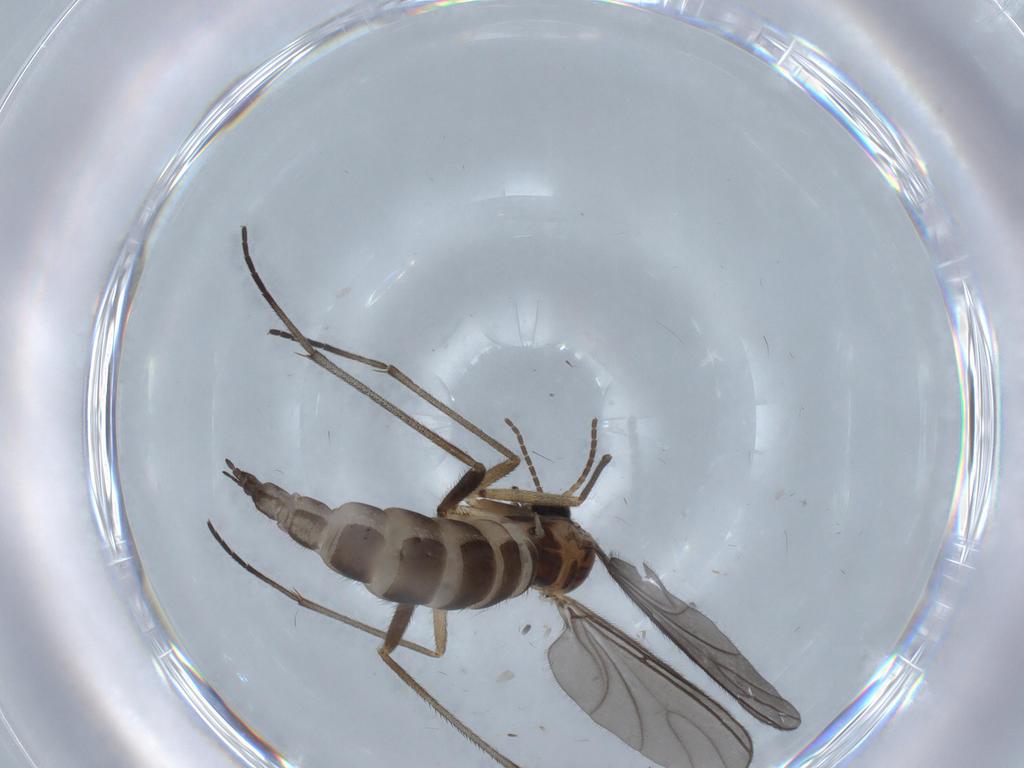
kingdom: Animalia
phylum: Arthropoda
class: Insecta
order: Diptera
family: Sciaridae
